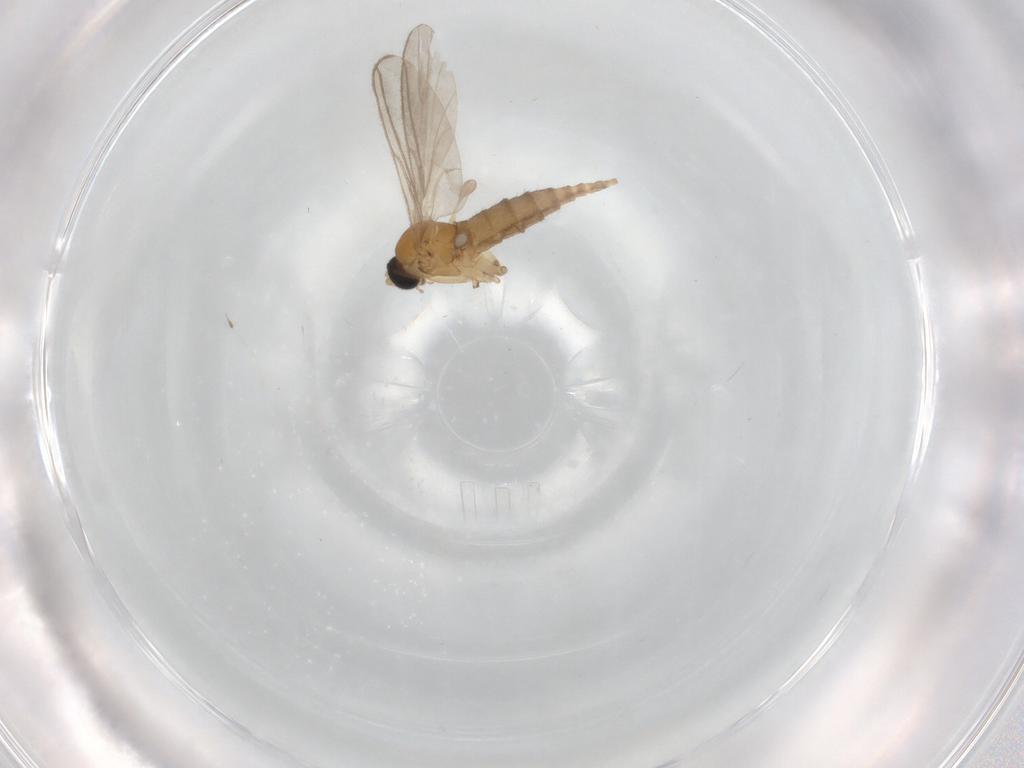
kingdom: Animalia
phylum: Arthropoda
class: Insecta
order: Diptera
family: Sciaridae
